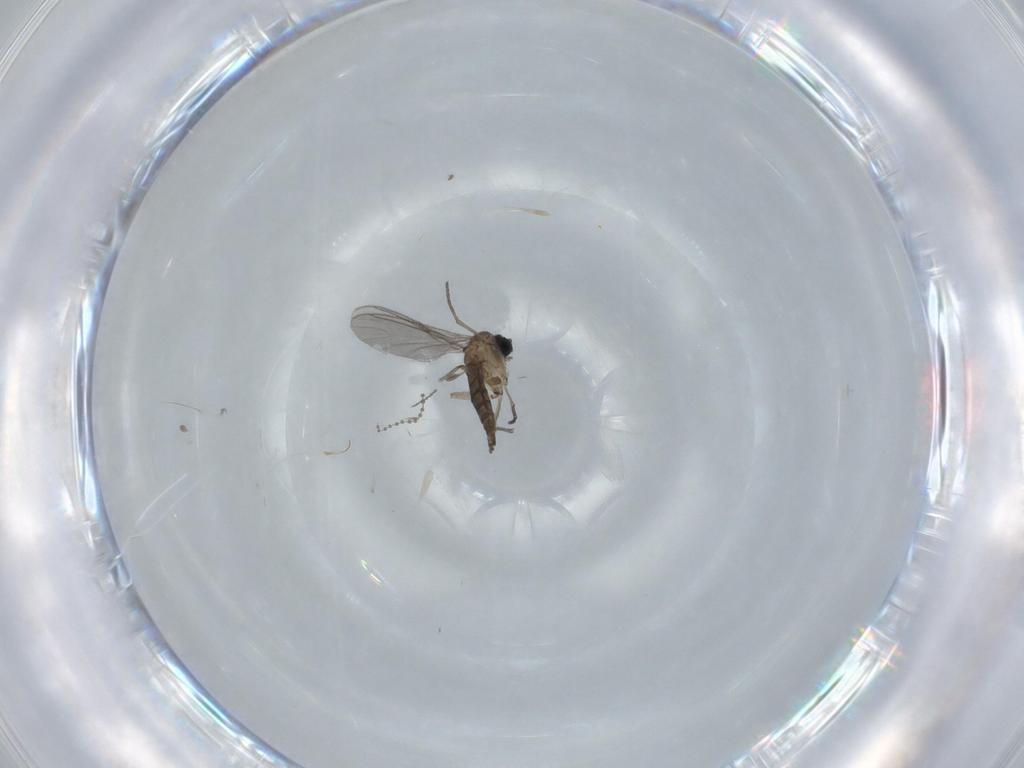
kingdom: Animalia
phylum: Arthropoda
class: Insecta
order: Diptera
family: Sciaridae
